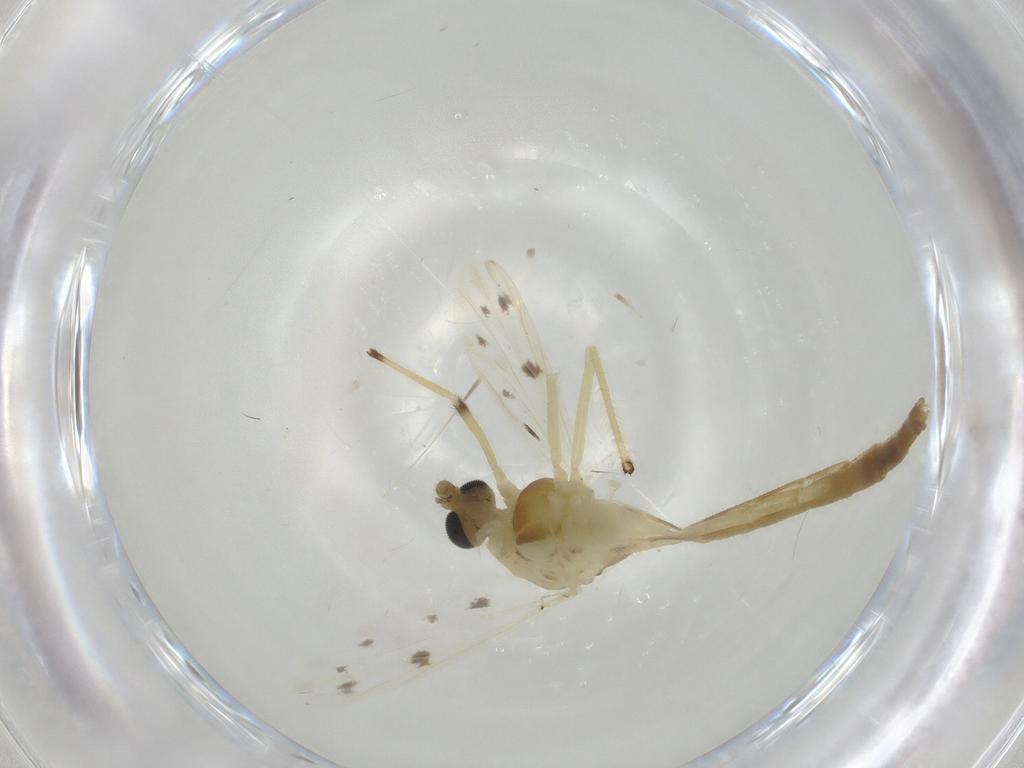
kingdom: Animalia
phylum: Arthropoda
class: Insecta
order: Diptera
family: Chironomidae
